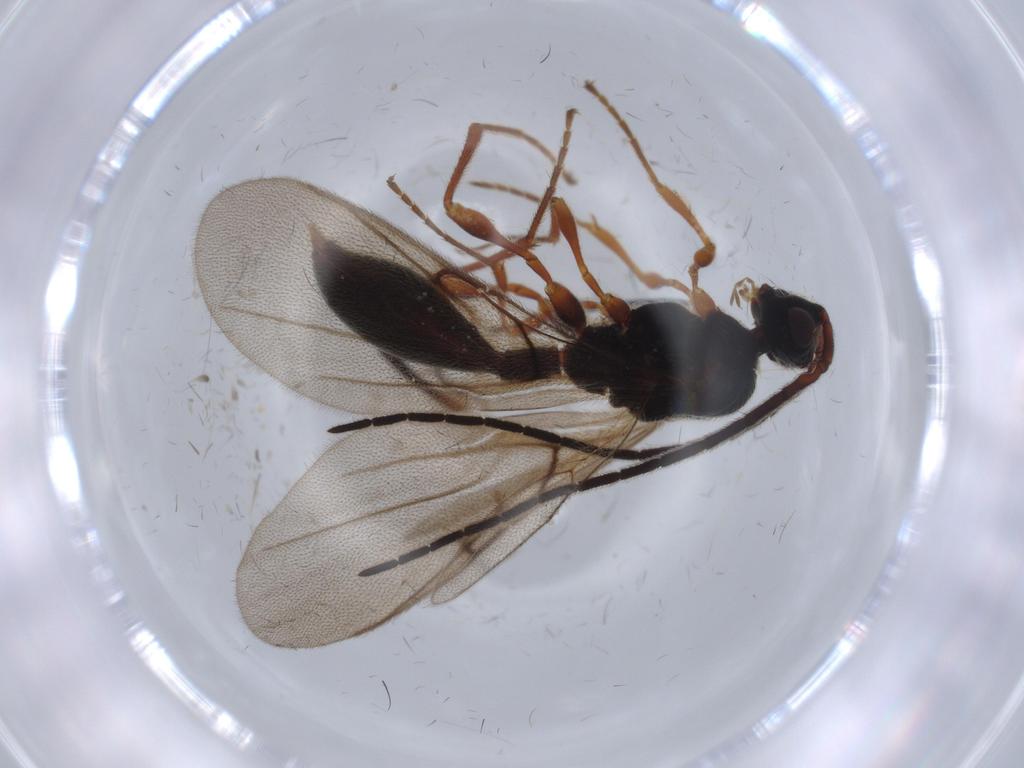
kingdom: Animalia
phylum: Arthropoda
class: Insecta
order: Hymenoptera
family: Braconidae
